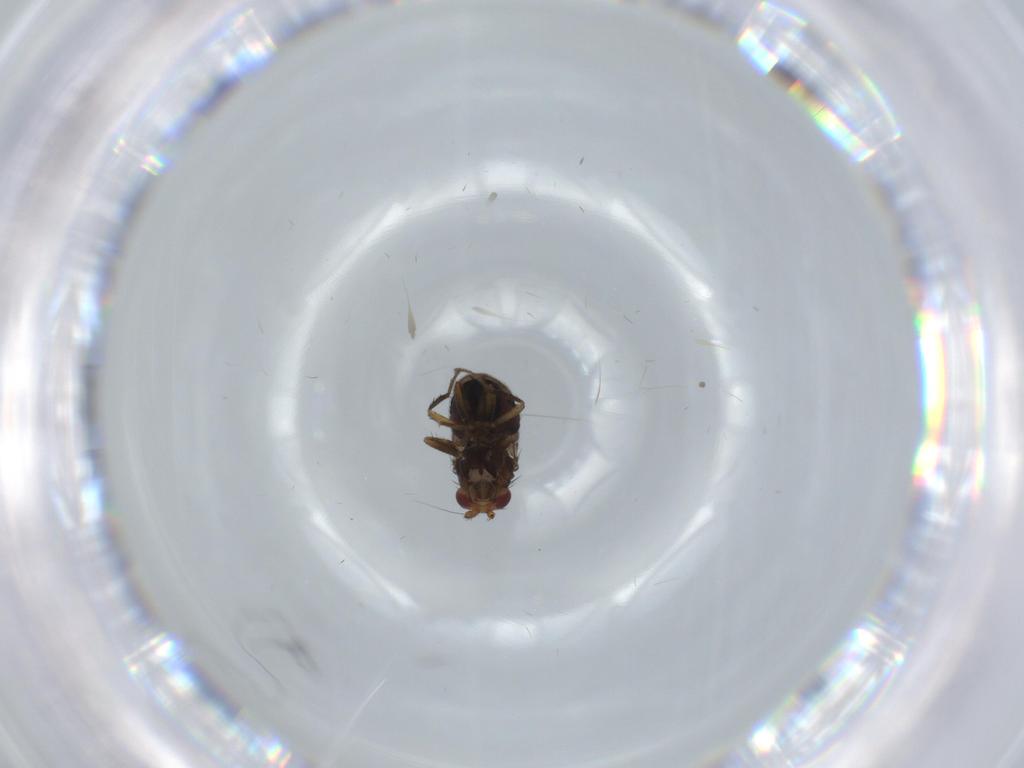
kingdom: Animalia
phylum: Arthropoda
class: Insecta
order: Diptera
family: Sphaeroceridae
